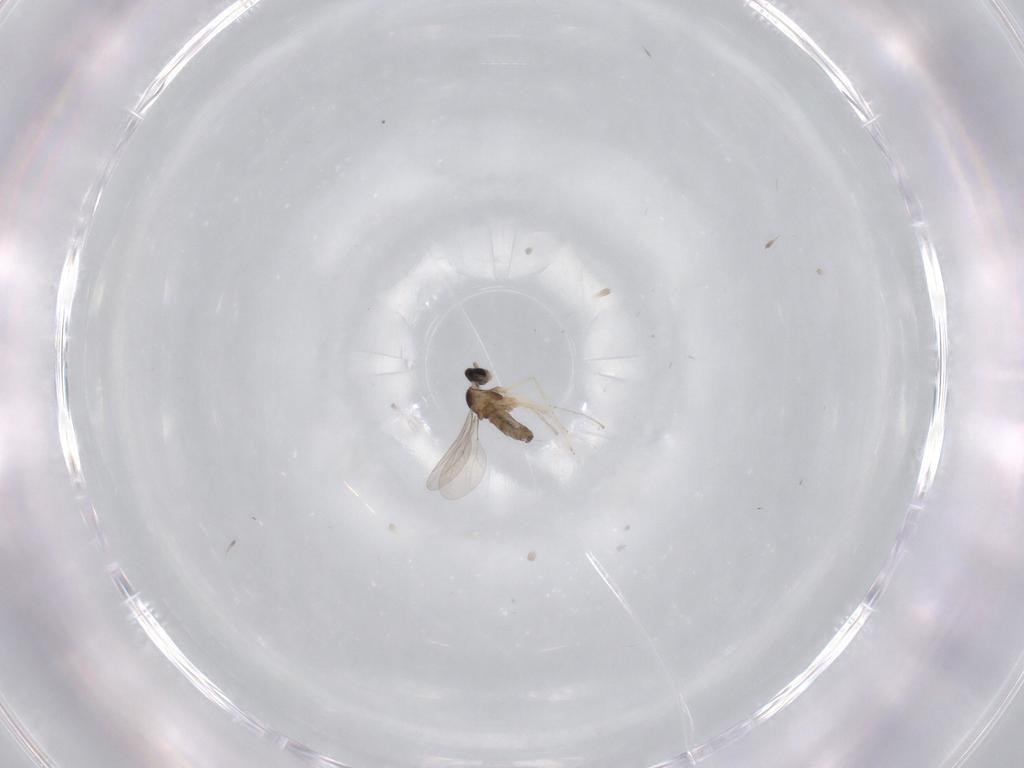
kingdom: Animalia
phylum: Arthropoda
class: Insecta
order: Diptera
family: Cecidomyiidae
